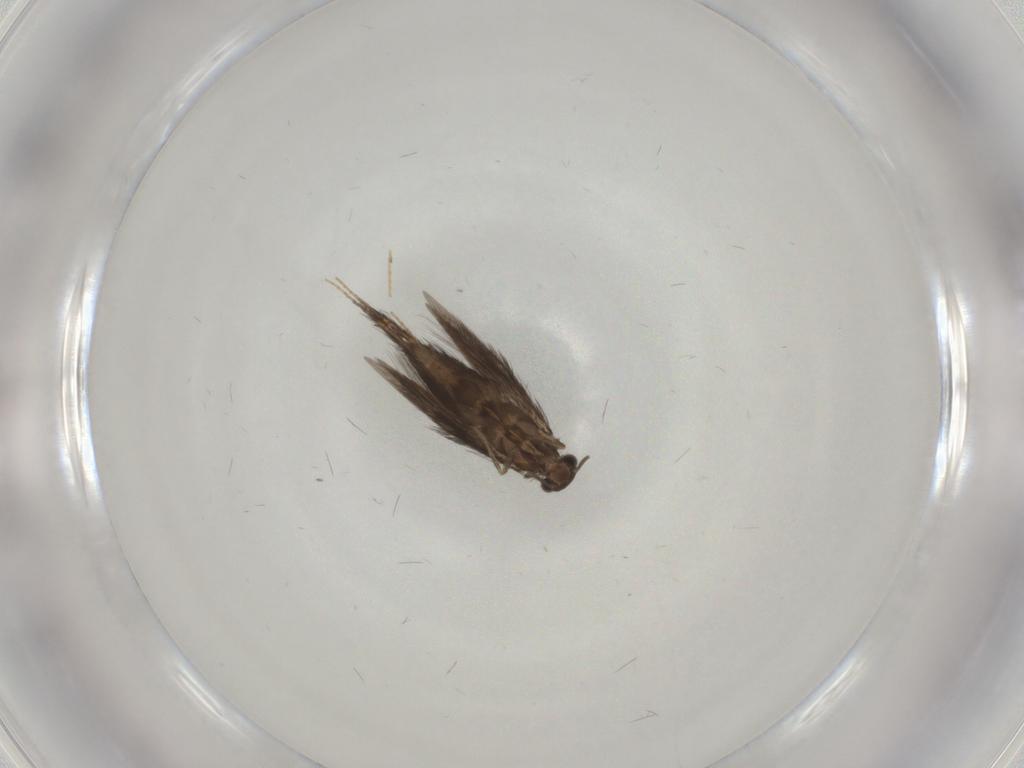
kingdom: Animalia
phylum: Arthropoda
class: Insecta
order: Trichoptera
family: Hydroptilidae
